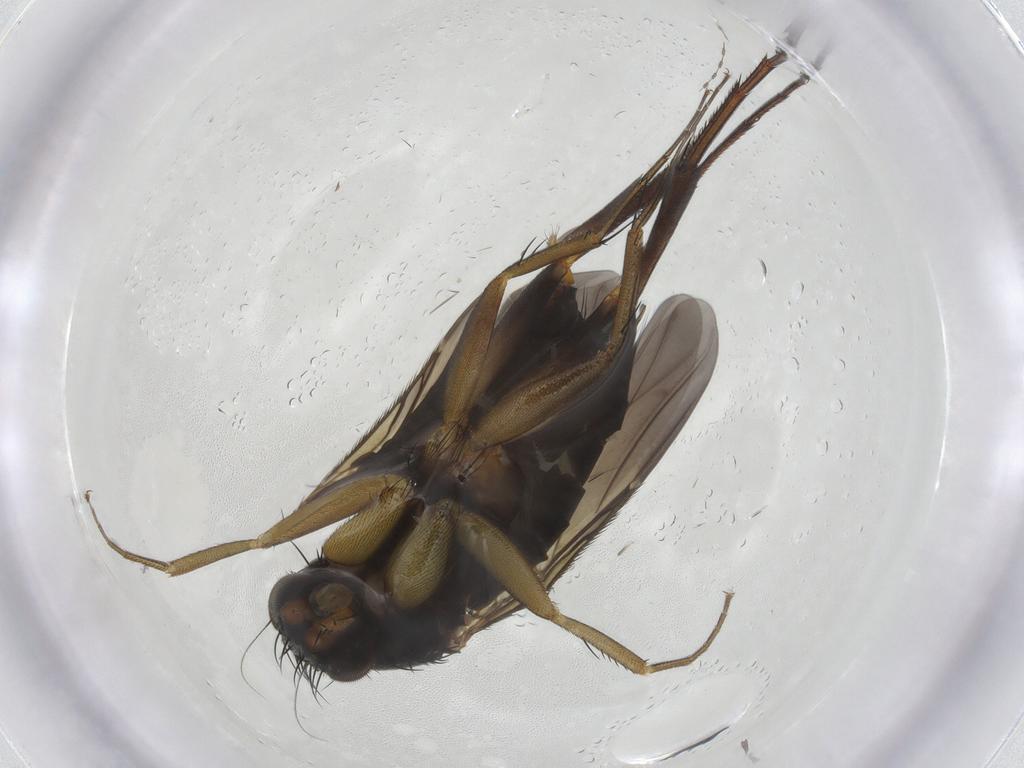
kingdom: Animalia
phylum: Arthropoda
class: Insecta
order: Diptera
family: Phoridae
